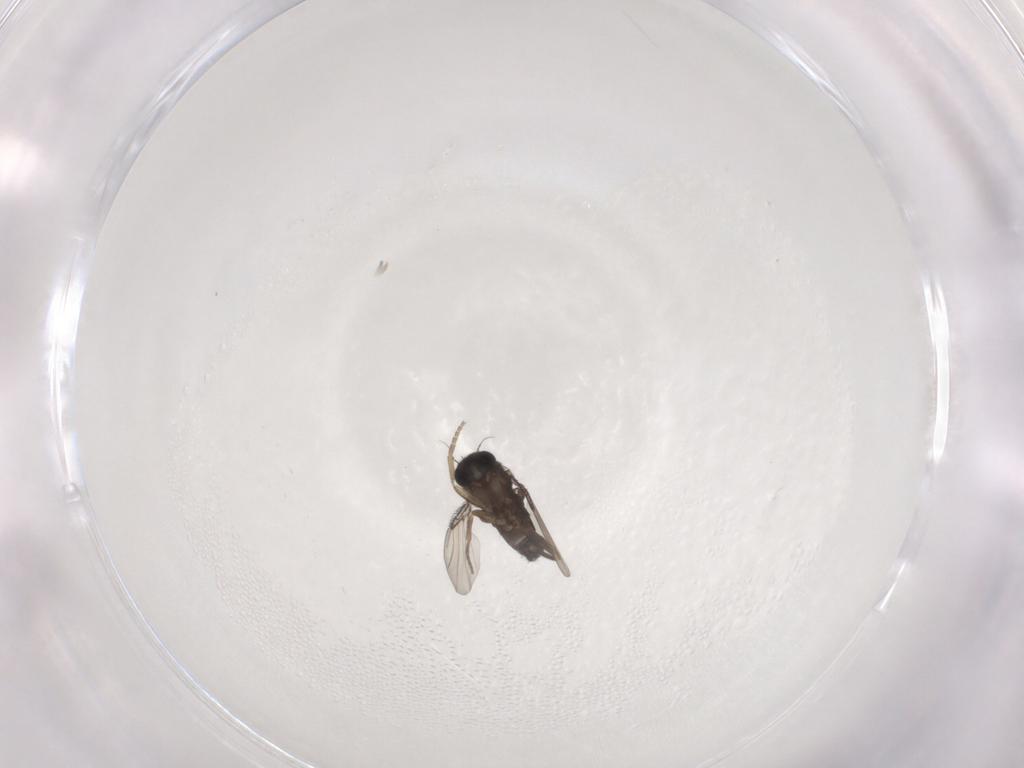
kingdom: Animalia
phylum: Arthropoda
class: Insecta
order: Diptera
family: Phoridae
